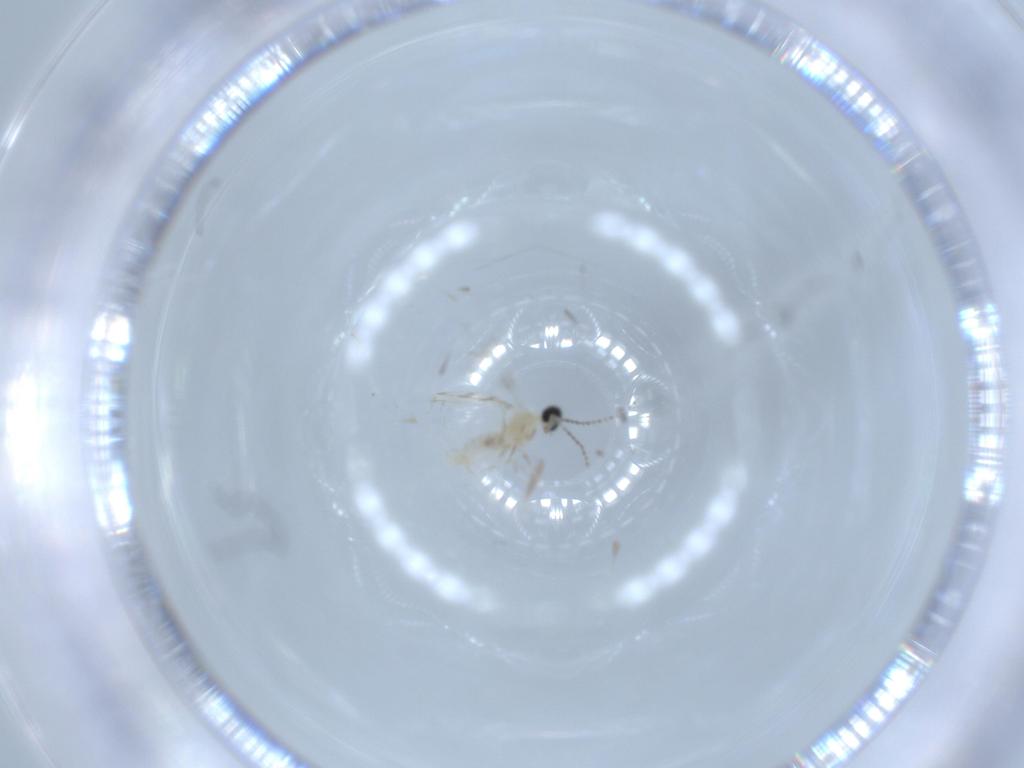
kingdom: Animalia
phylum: Arthropoda
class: Insecta
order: Diptera
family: Cecidomyiidae
